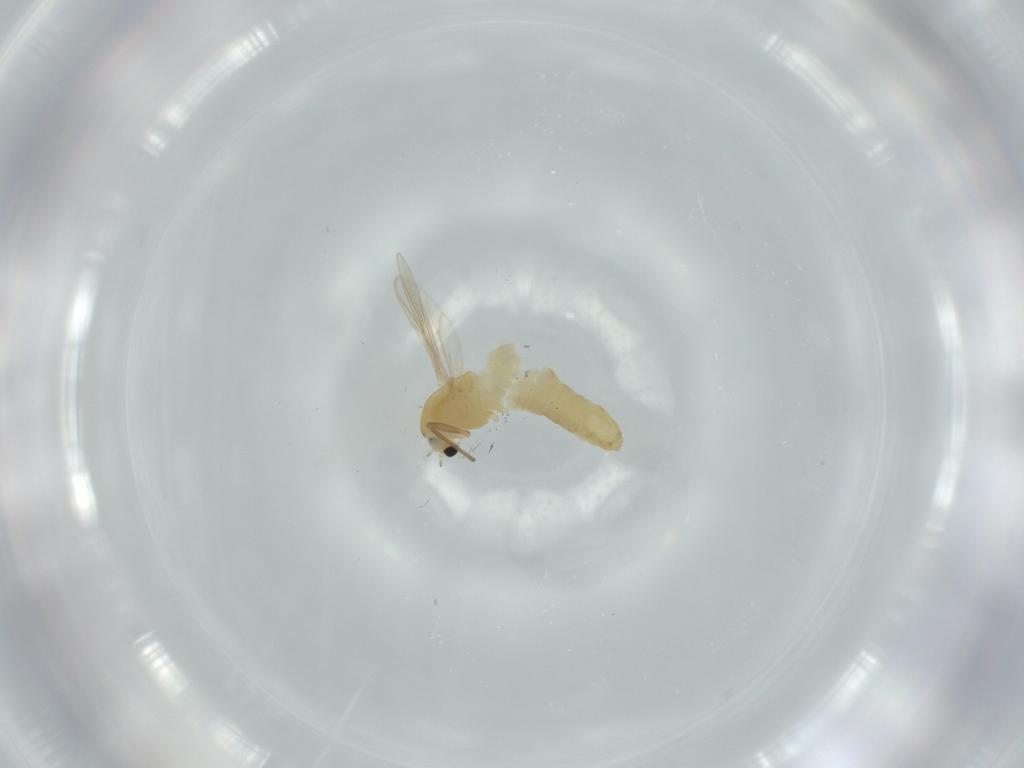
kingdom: Animalia
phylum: Arthropoda
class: Insecta
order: Diptera
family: Chironomidae
